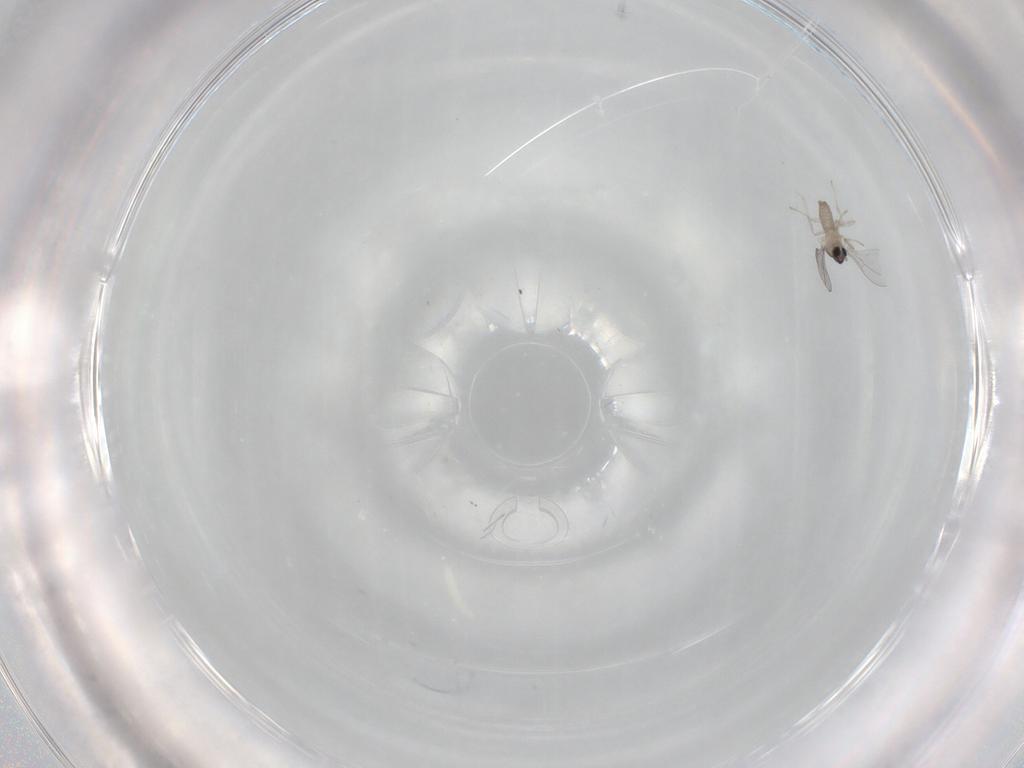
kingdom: Animalia
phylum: Arthropoda
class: Insecta
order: Diptera
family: Cecidomyiidae
